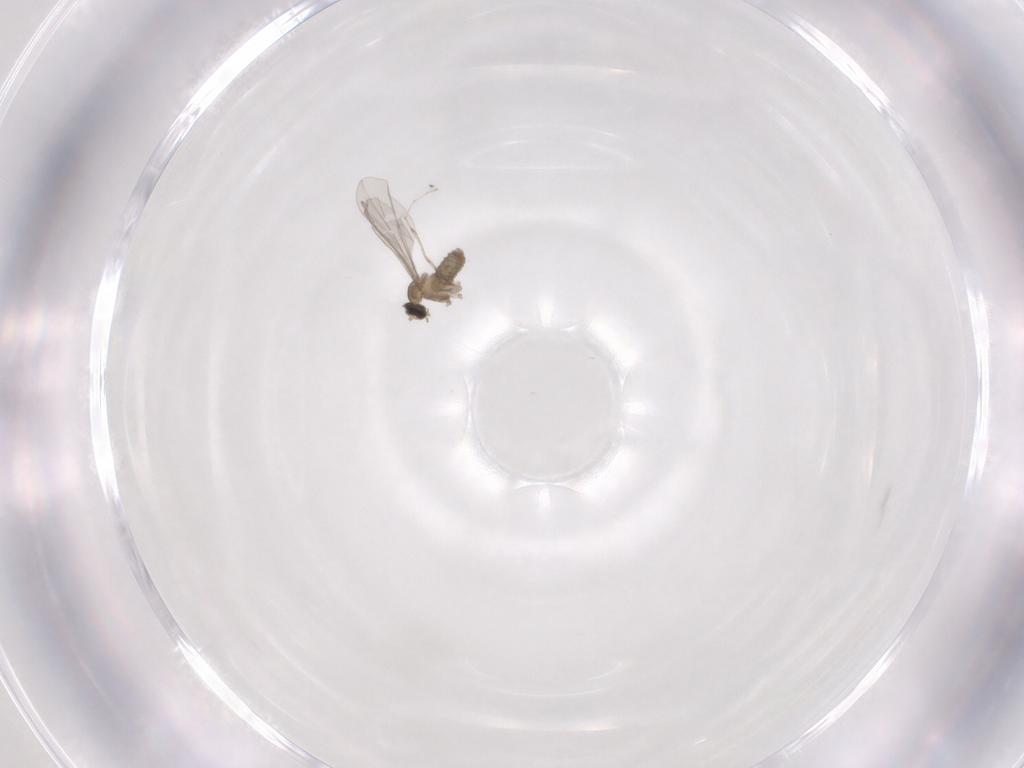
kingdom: Animalia
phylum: Arthropoda
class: Insecta
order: Diptera
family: Cecidomyiidae
